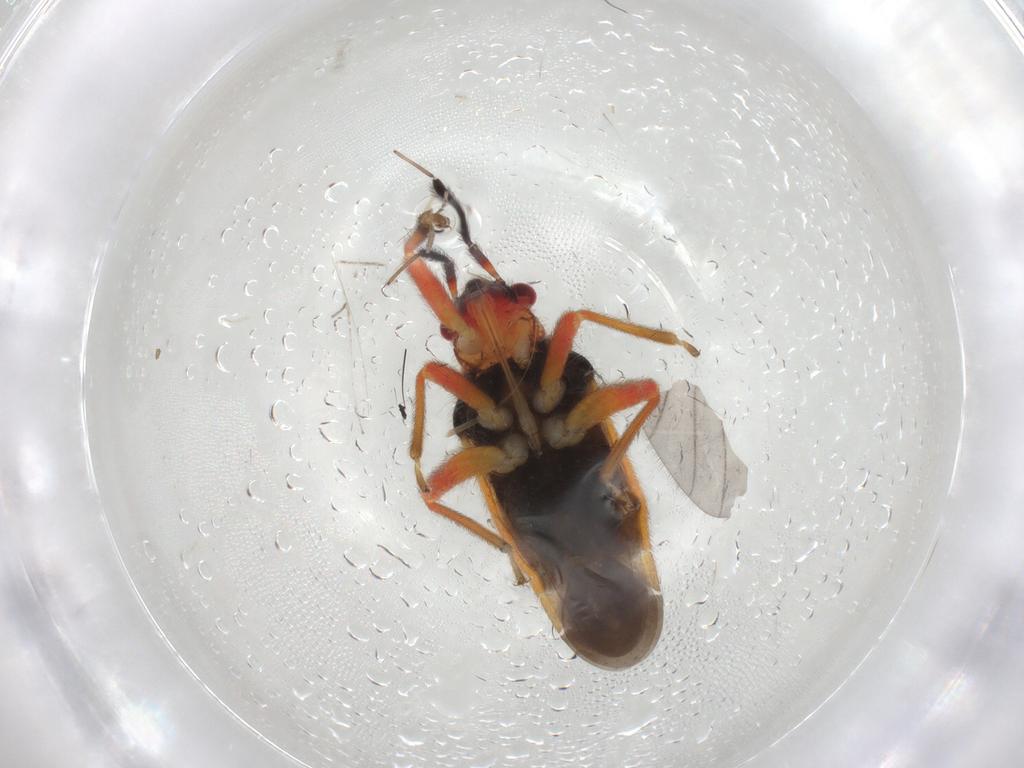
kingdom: Animalia
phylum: Arthropoda
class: Insecta
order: Hemiptera
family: Miridae
